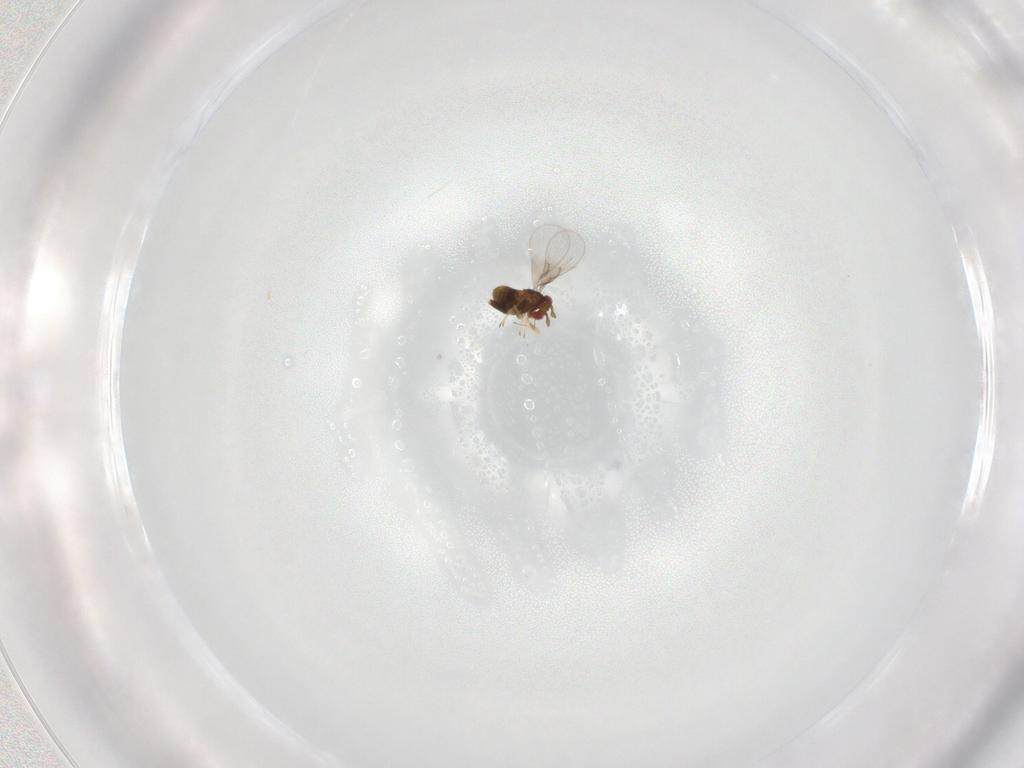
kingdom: Animalia
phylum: Arthropoda
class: Insecta
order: Hymenoptera
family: Trichogrammatidae
